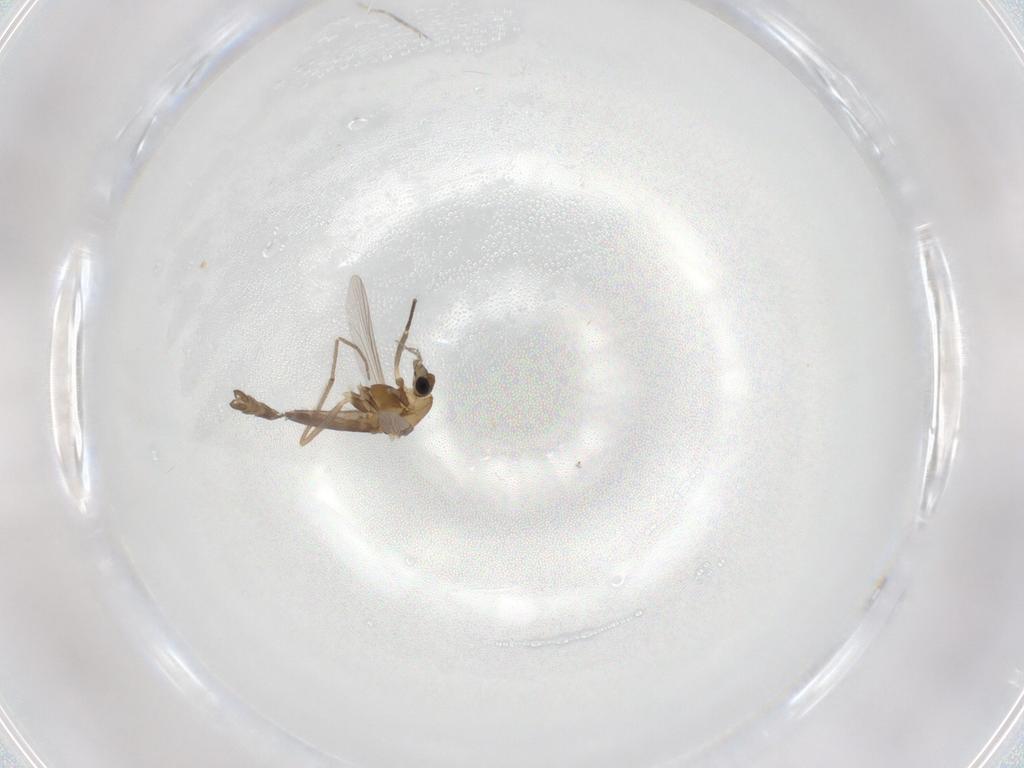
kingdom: Animalia
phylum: Arthropoda
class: Insecta
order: Diptera
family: Chironomidae
